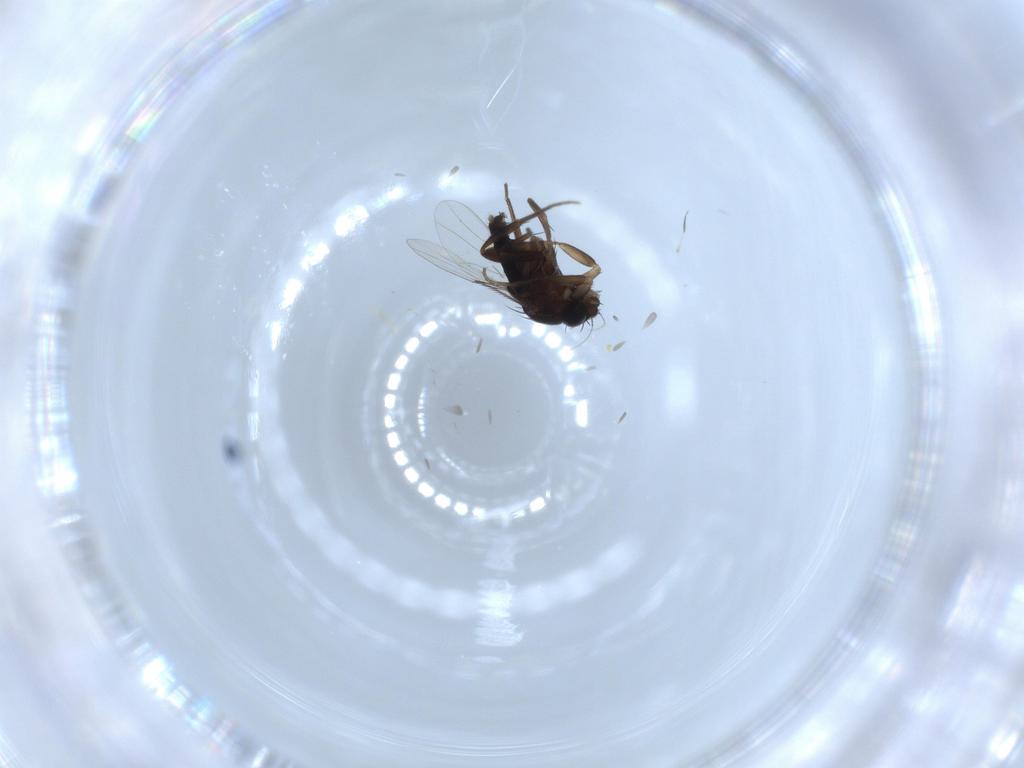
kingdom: Animalia
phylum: Arthropoda
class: Insecta
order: Diptera
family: Phoridae
